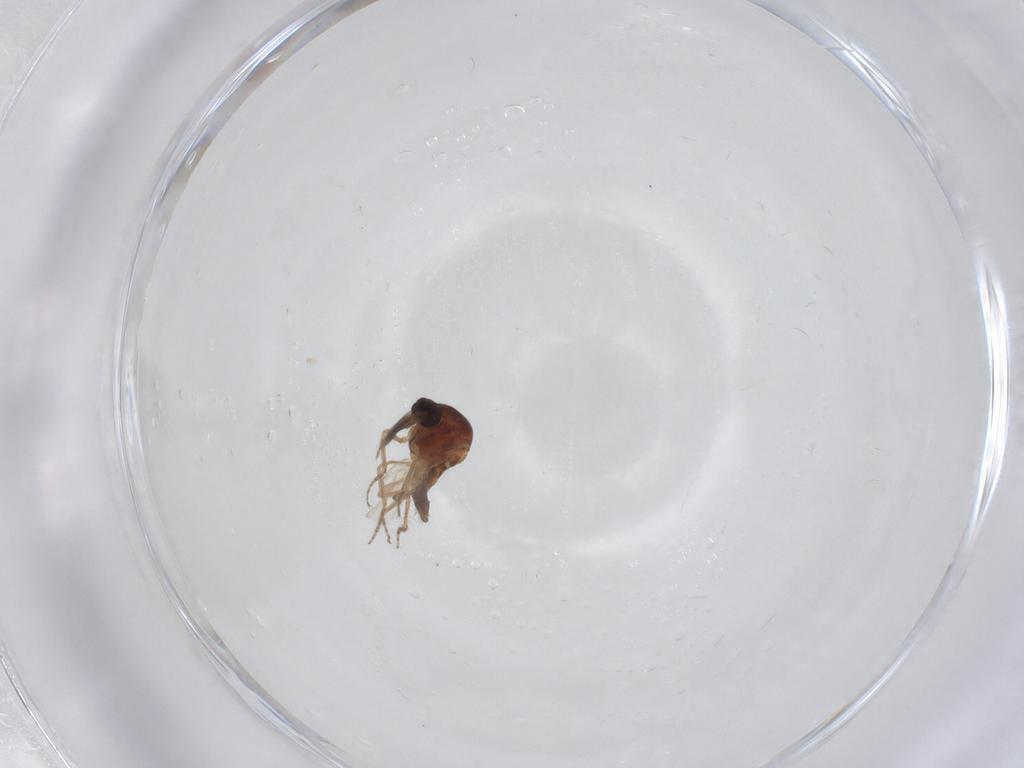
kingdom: Animalia
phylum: Arthropoda
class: Insecta
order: Diptera
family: Ceratopogonidae
